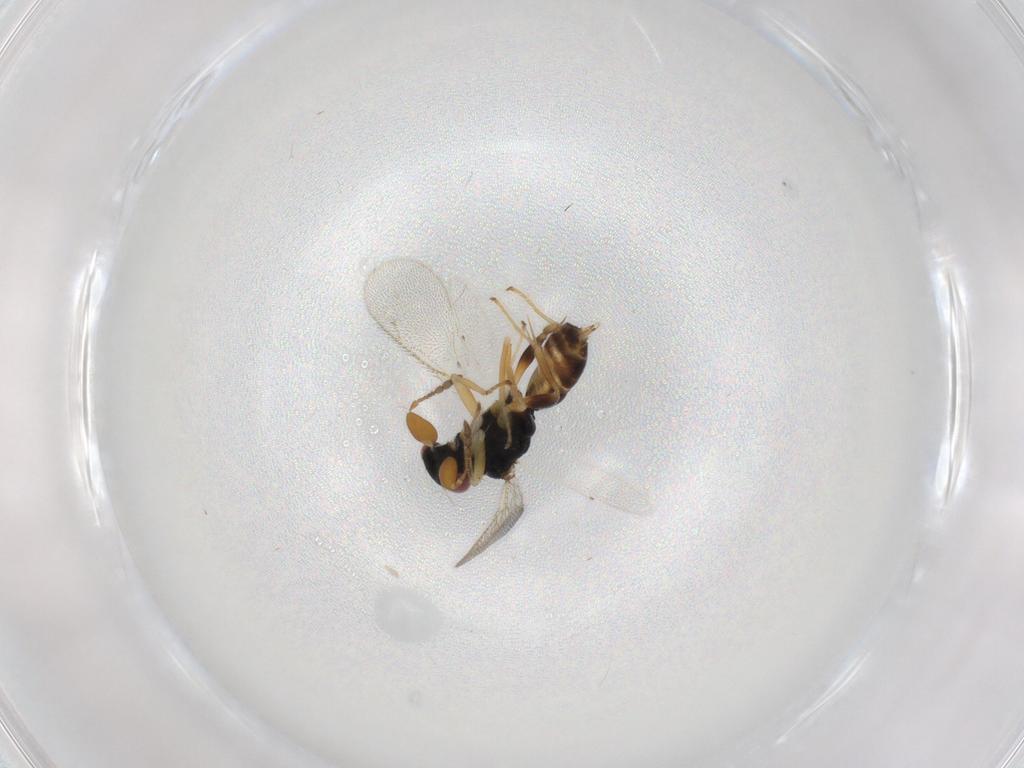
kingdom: Animalia
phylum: Arthropoda
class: Insecta
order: Hymenoptera
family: Eulophidae
